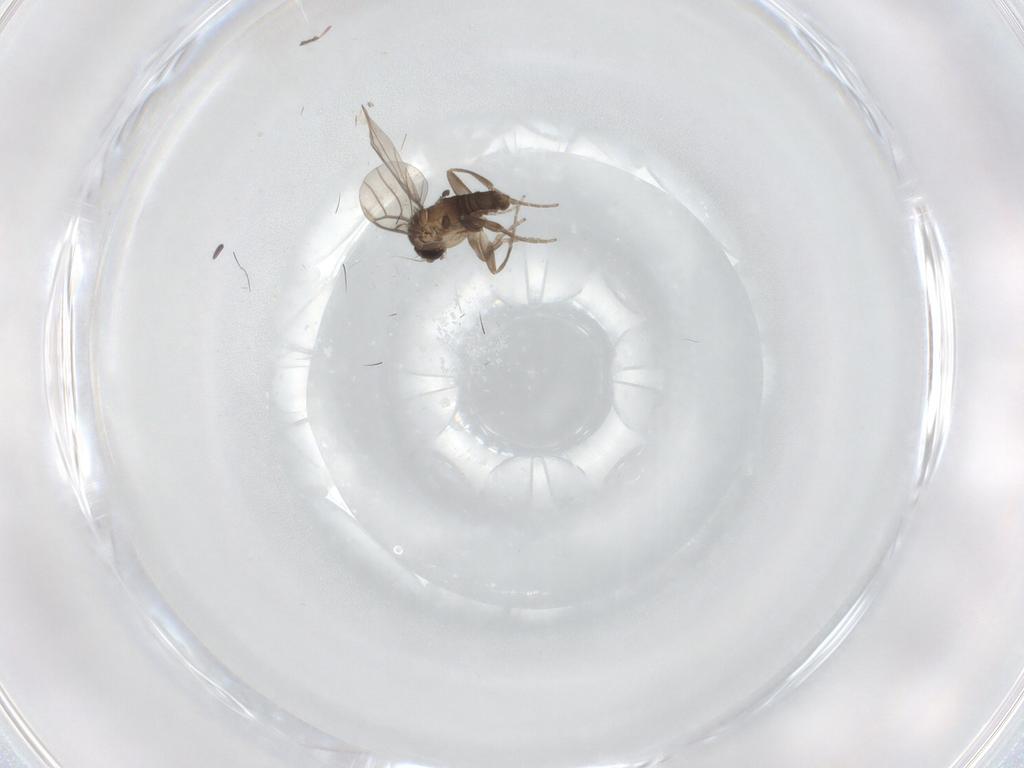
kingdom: Animalia
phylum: Arthropoda
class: Insecta
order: Diptera
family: Cecidomyiidae
